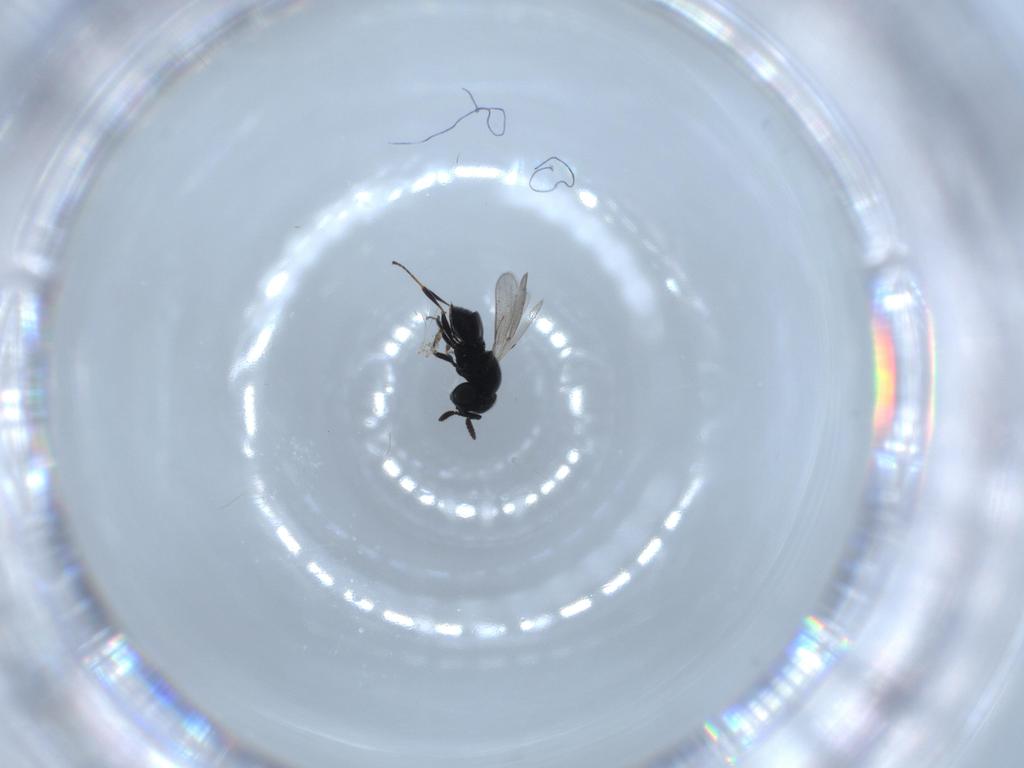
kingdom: Animalia
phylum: Arthropoda
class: Insecta
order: Hymenoptera
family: Scelionidae
